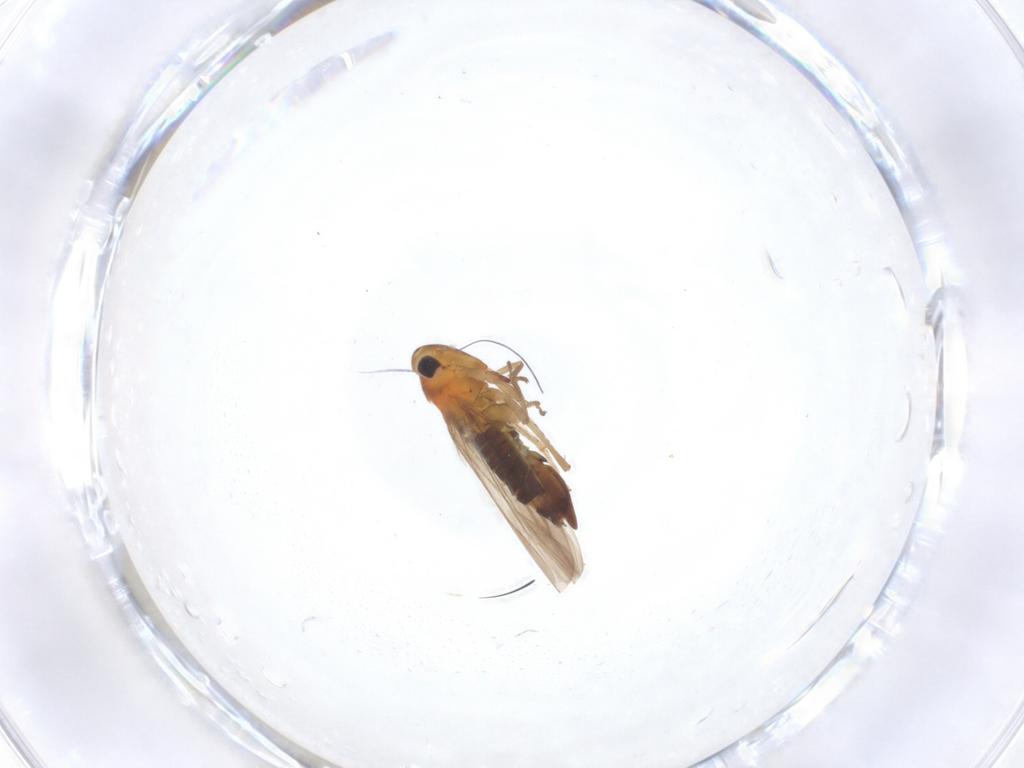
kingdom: Animalia
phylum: Arthropoda
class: Insecta
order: Hemiptera
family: Cicadellidae
